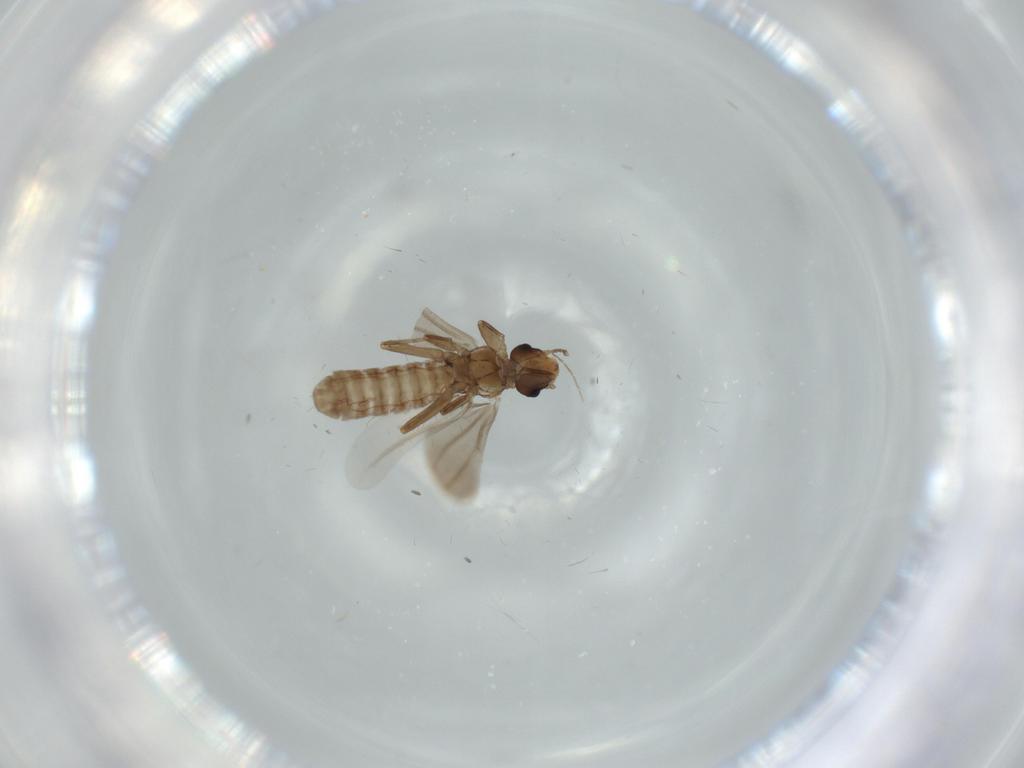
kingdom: Animalia
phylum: Arthropoda
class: Insecta
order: Psocodea
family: Liposcelididae
